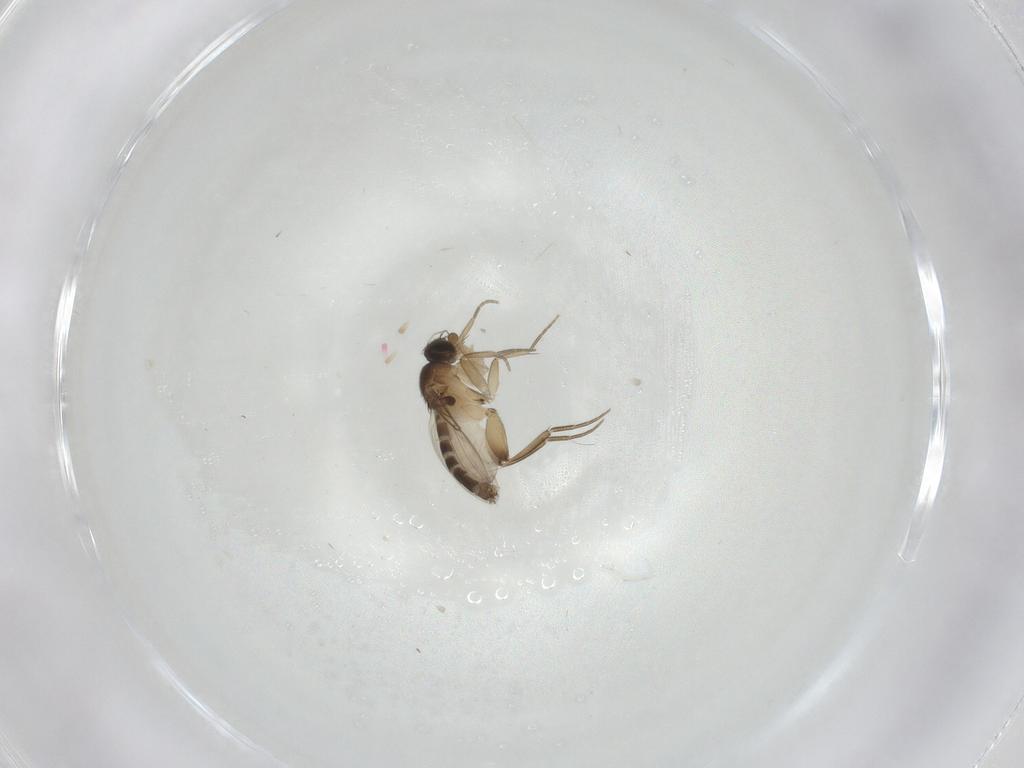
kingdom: Animalia
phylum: Arthropoda
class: Insecta
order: Diptera
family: Phoridae
